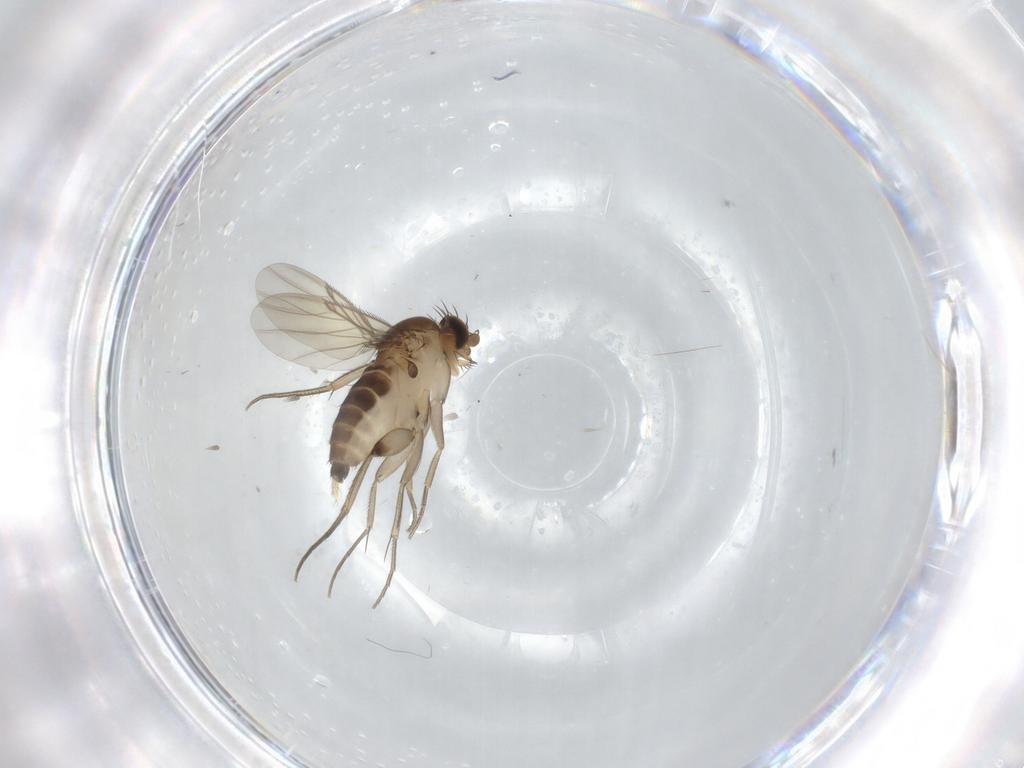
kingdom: Animalia
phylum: Arthropoda
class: Insecta
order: Diptera
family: Phoridae
